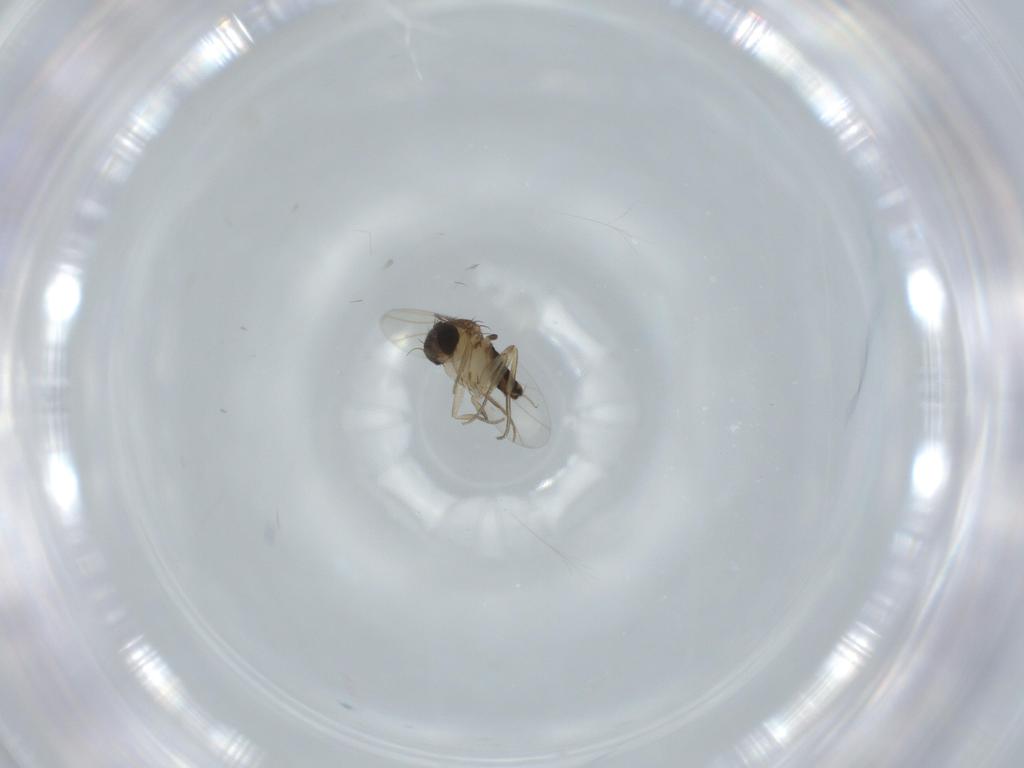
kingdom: Animalia
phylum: Arthropoda
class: Insecta
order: Diptera
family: Phoridae
